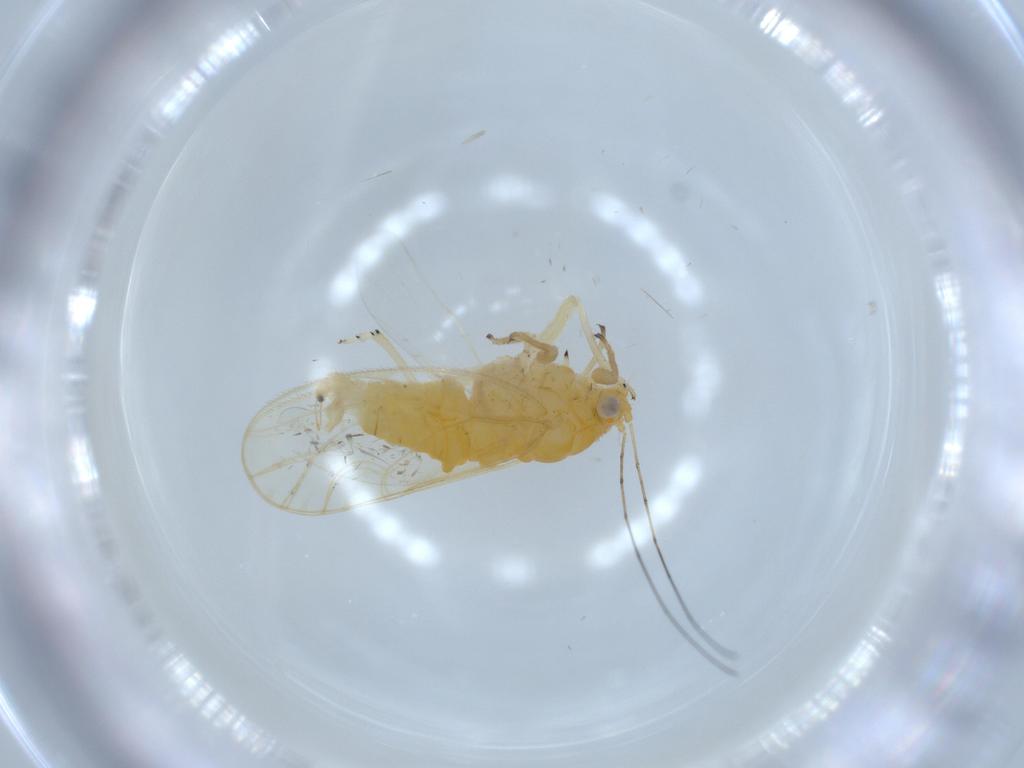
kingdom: Animalia
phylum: Arthropoda
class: Insecta
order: Hemiptera
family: Psyllidae
